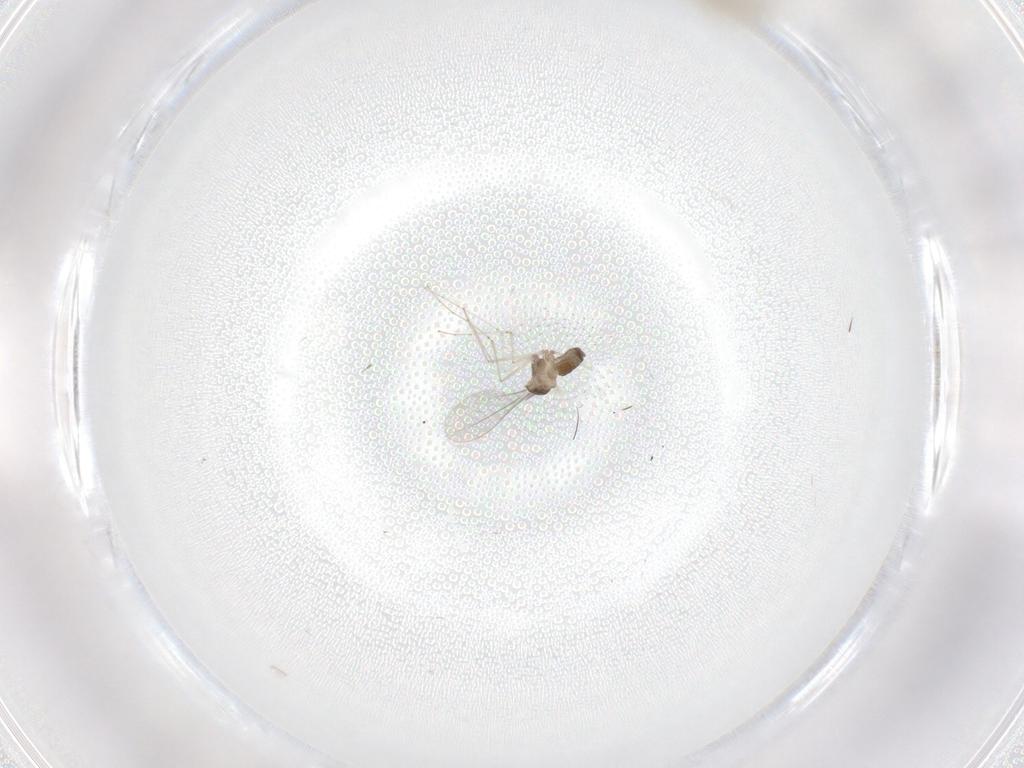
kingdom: Animalia
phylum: Arthropoda
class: Insecta
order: Diptera
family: Cecidomyiidae
